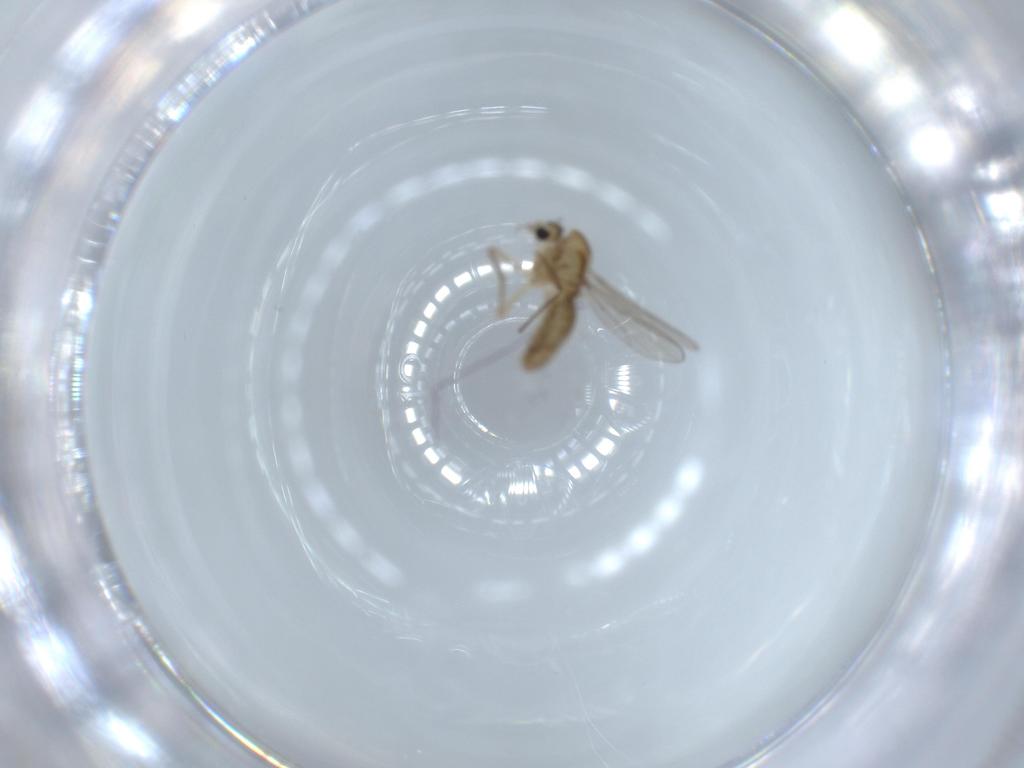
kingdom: Animalia
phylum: Arthropoda
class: Insecta
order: Diptera
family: Chironomidae
